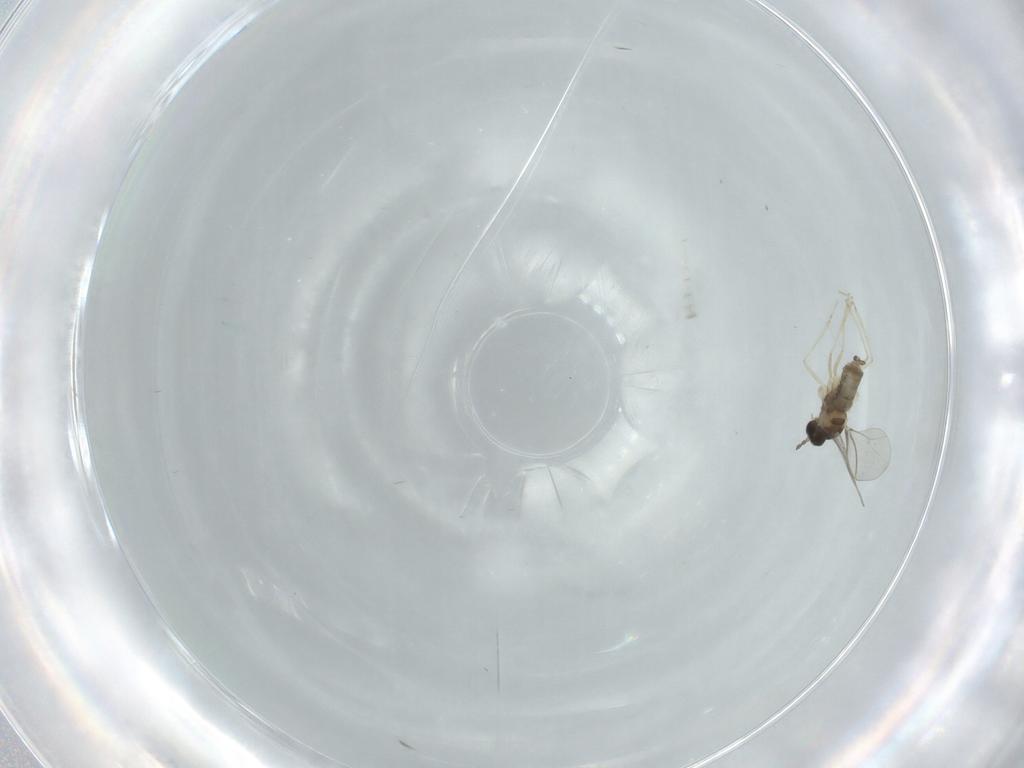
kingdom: Animalia
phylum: Arthropoda
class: Insecta
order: Diptera
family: Cecidomyiidae
